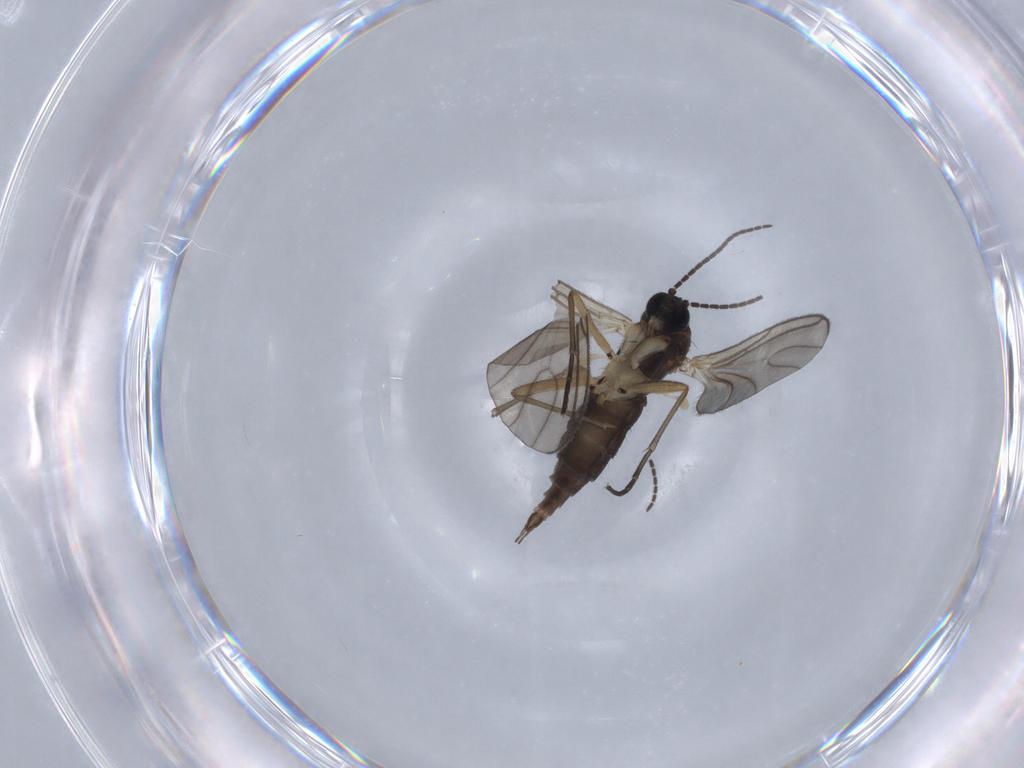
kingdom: Animalia
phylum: Arthropoda
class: Insecta
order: Diptera
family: Sciaridae
